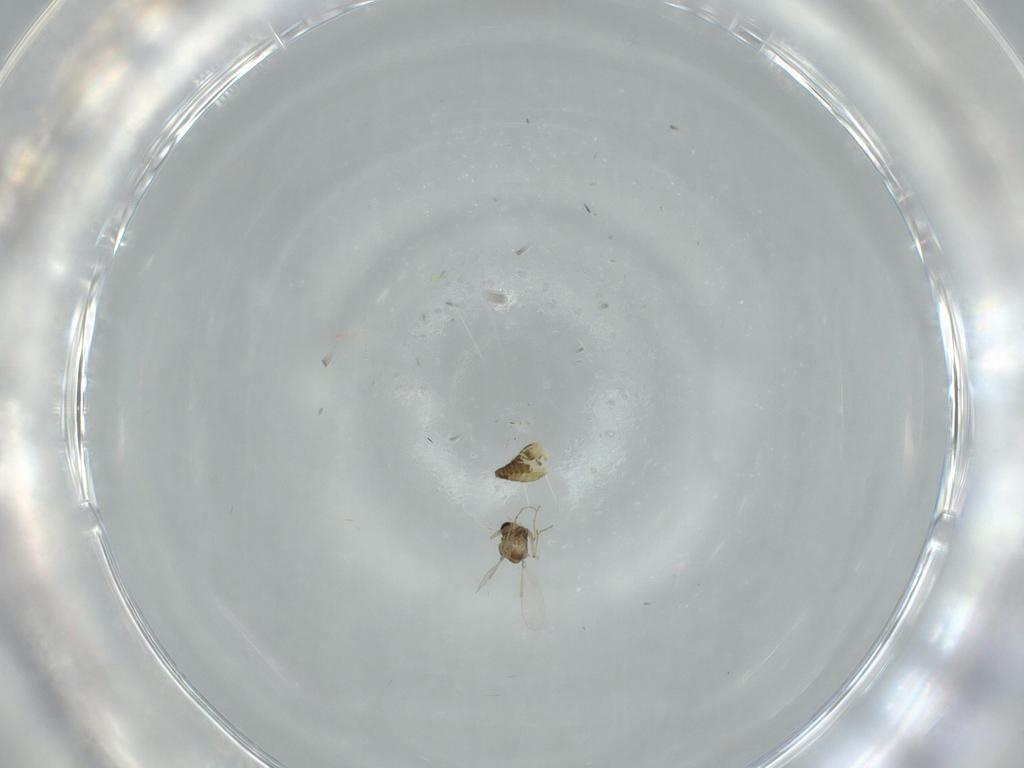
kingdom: Animalia
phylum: Arthropoda
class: Insecta
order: Diptera
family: Chironomidae
